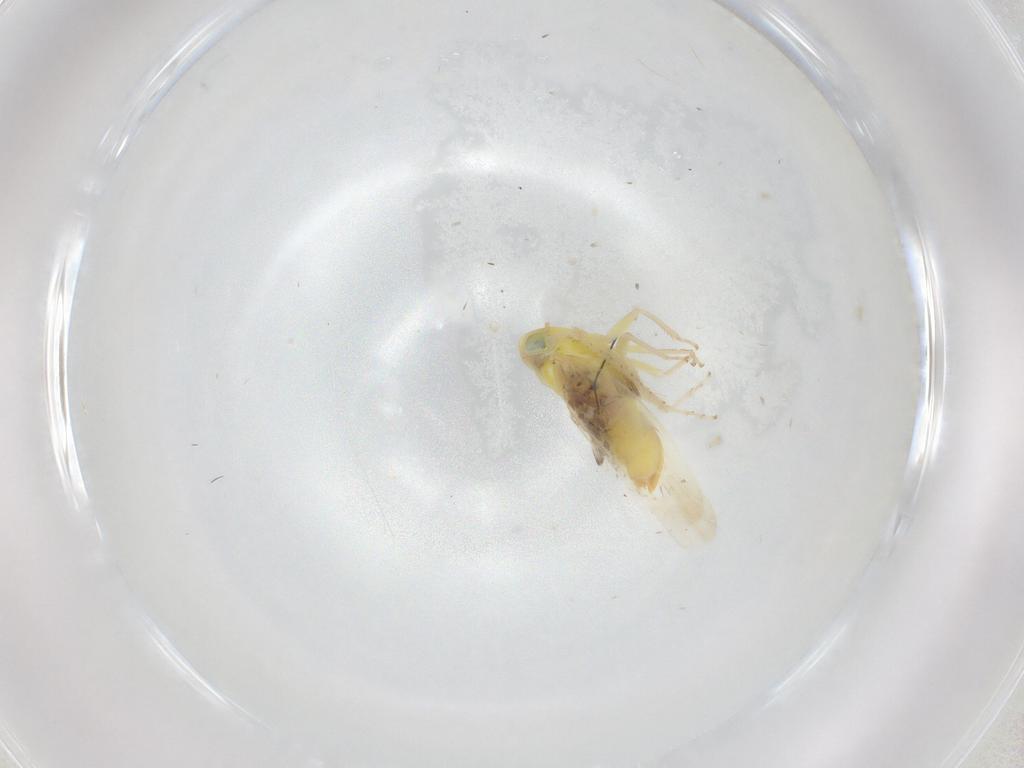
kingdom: Animalia
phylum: Arthropoda
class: Insecta
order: Hemiptera
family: Cicadellidae
